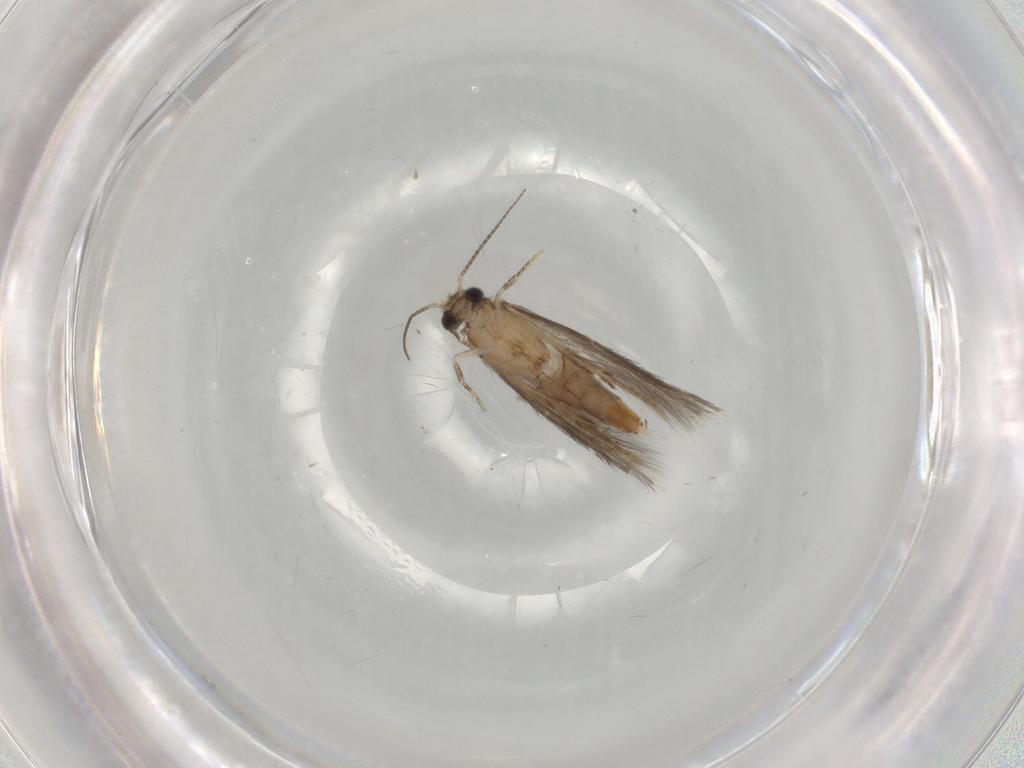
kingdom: Animalia
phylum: Arthropoda
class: Insecta
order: Trichoptera
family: Hydroptilidae
